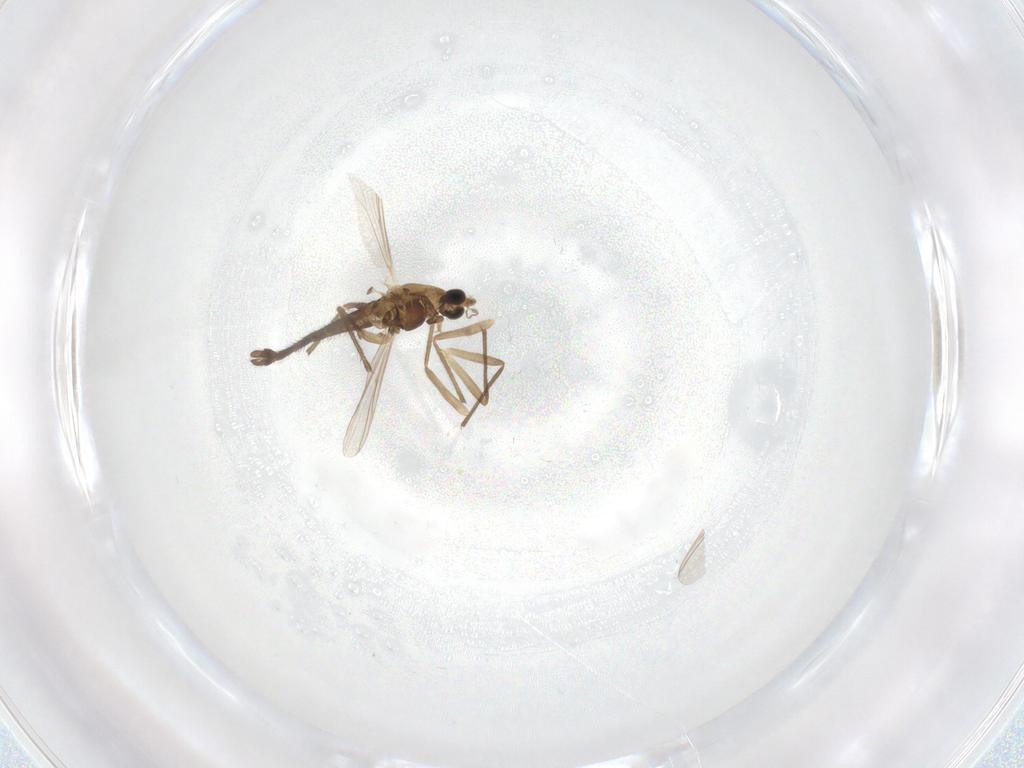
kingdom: Animalia
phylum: Arthropoda
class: Insecta
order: Diptera
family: Chironomidae
